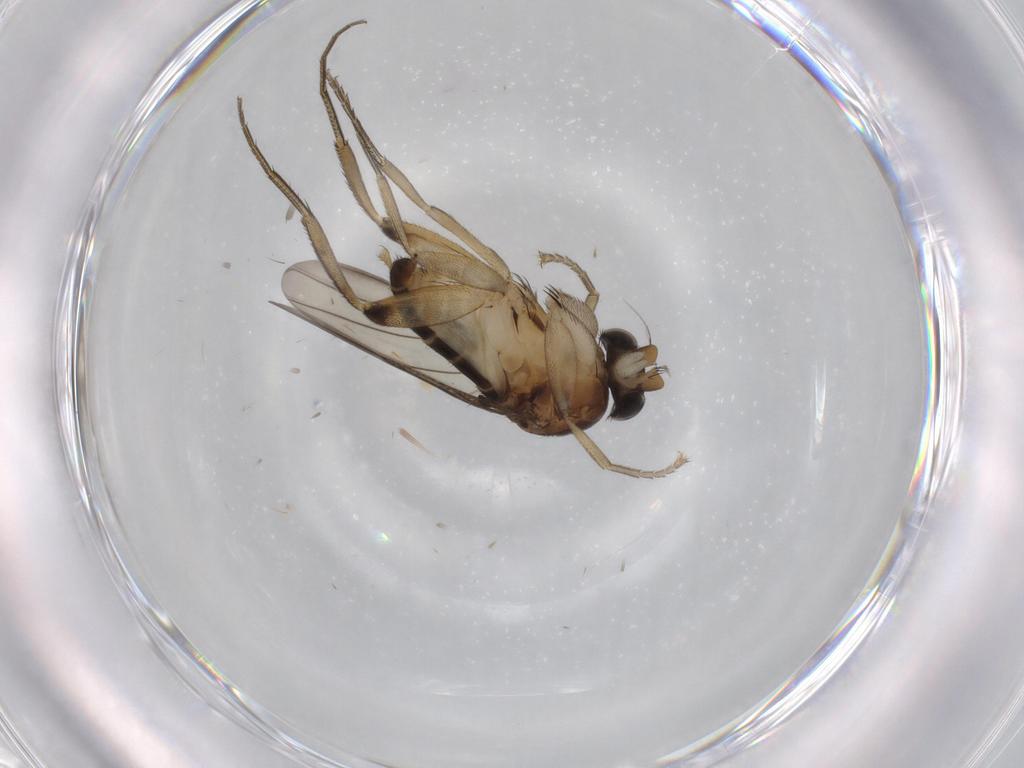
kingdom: Animalia
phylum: Arthropoda
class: Insecta
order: Diptera
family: Phoridae
